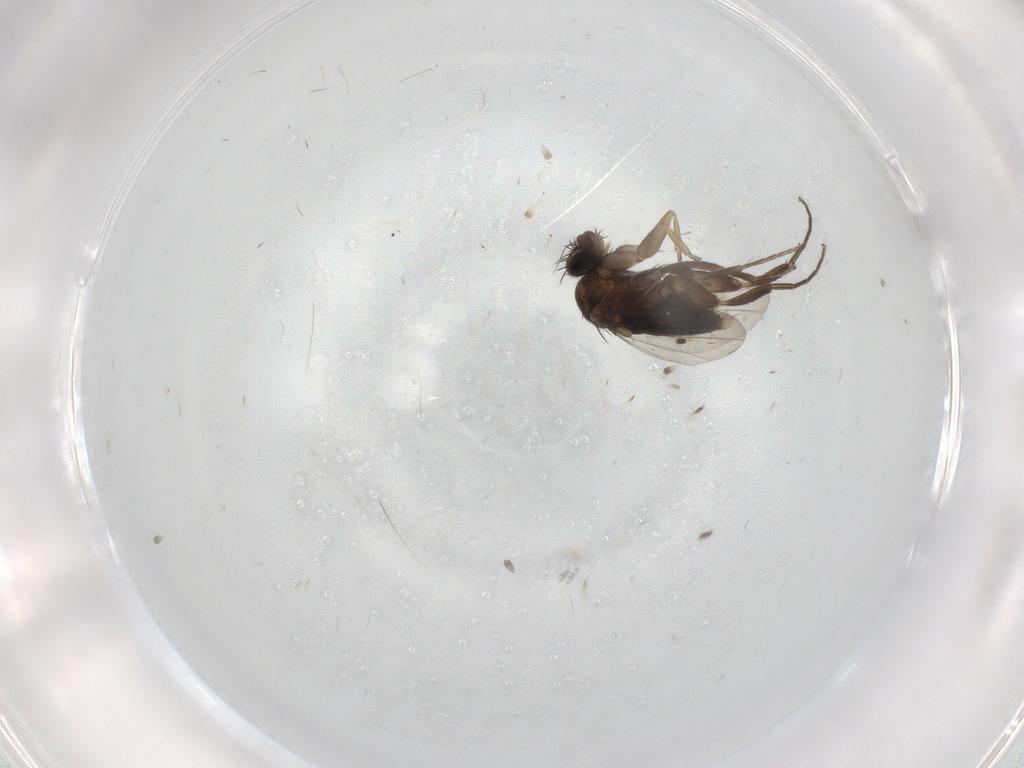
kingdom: Animalia
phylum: Arthropoda
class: Insecta
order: Diptera
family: Phoridae
